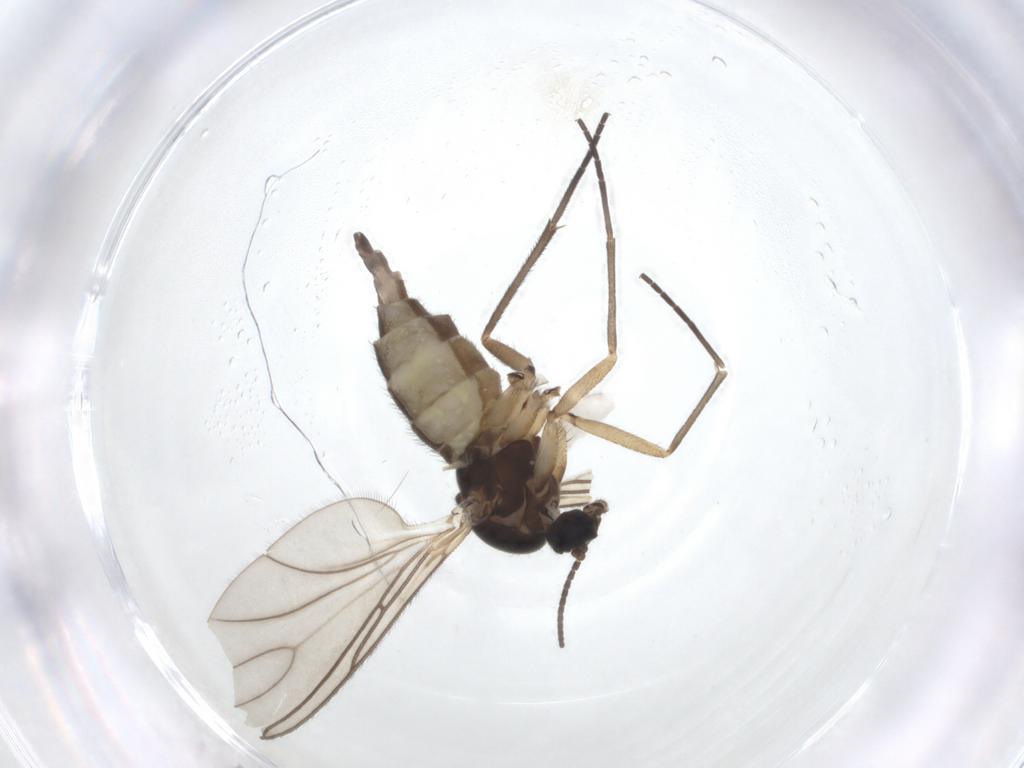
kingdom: Animalia
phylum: Arthropoda
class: Insecta
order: Diptera
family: Sciaridae
